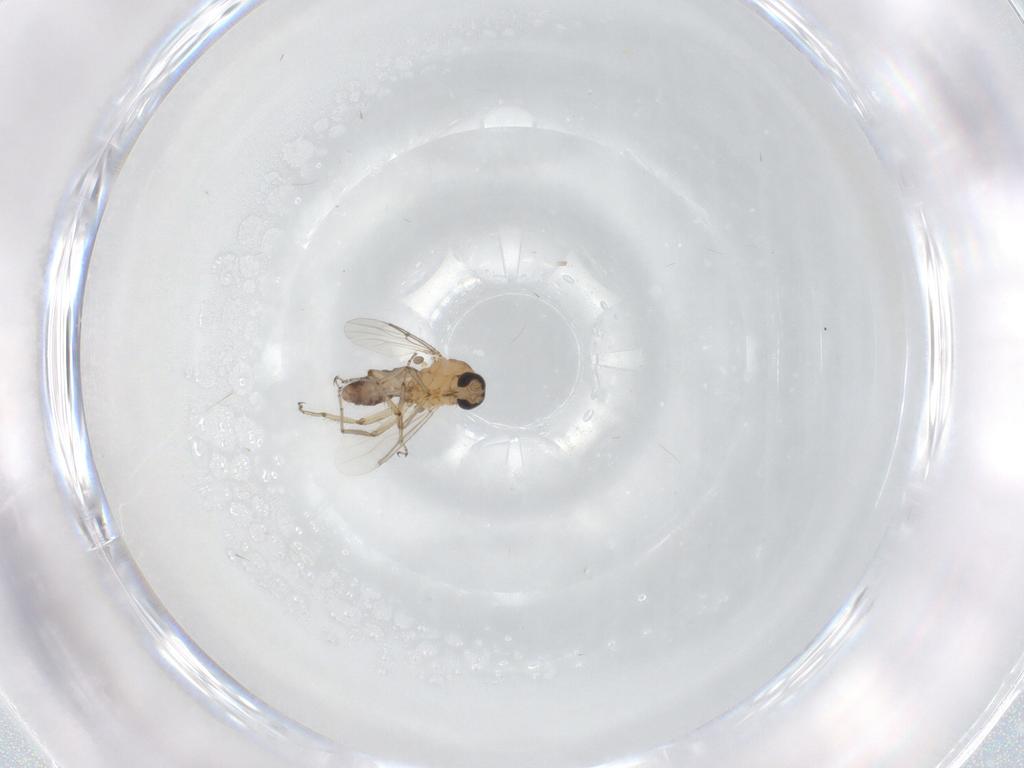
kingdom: Animalia
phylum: Arthropoda
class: Insecta
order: Diptera
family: Ceratopogonidae
